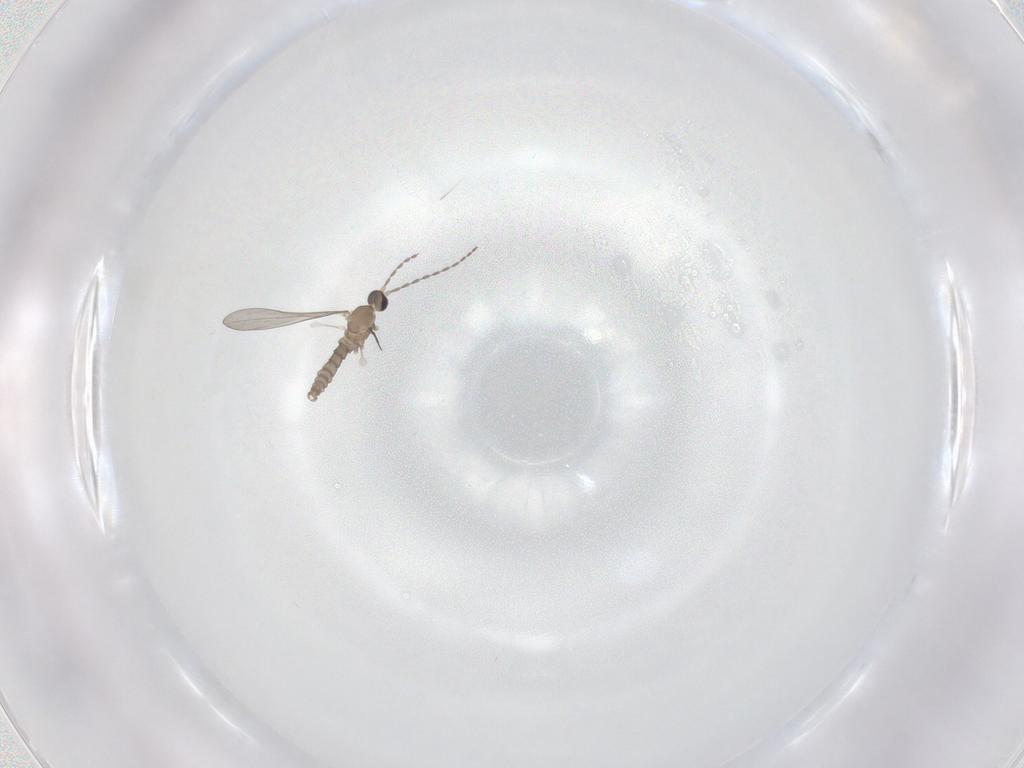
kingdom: Animalia
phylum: Arthropoda
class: Insecta
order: Diptera
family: Cecidomyiidae
